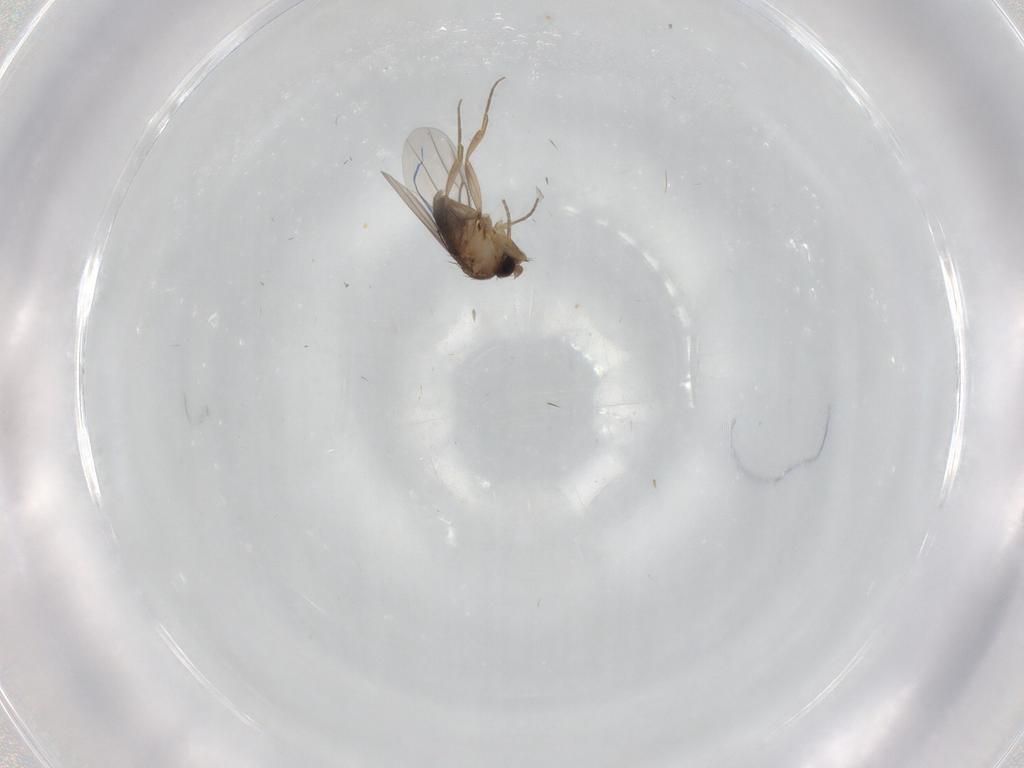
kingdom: Animalia
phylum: Arthropoda
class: Insecta
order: Diptera
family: Phoridae
